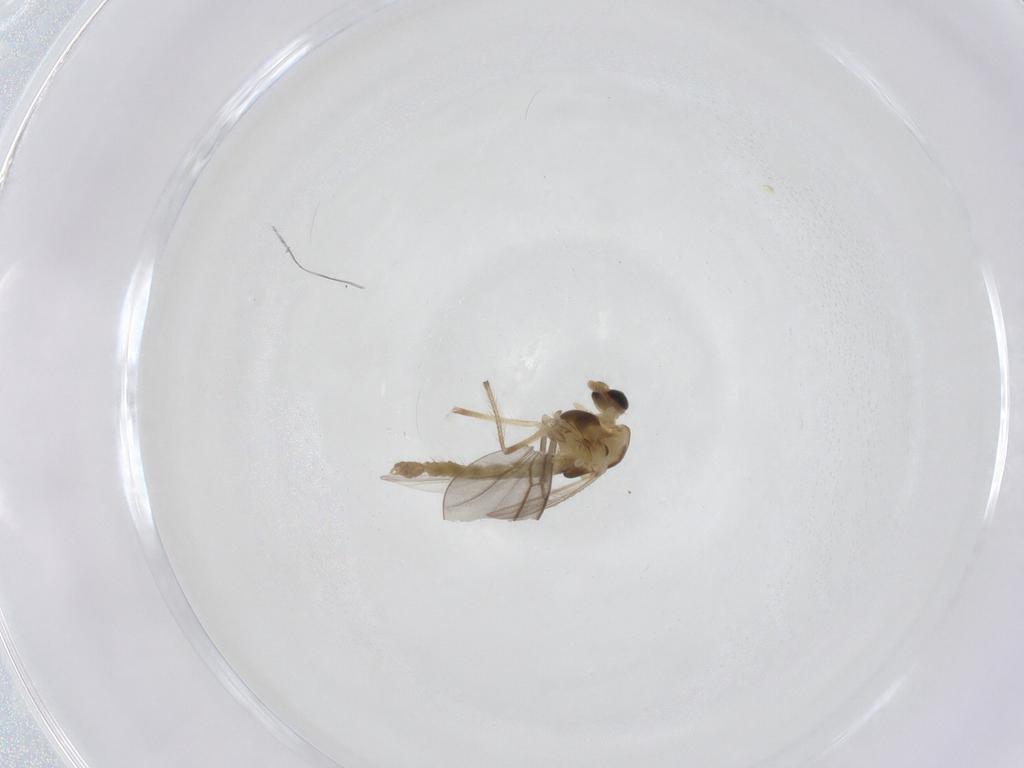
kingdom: Animalia
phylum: Arthropoda
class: Insecta
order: Diptera
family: Chironomidae
